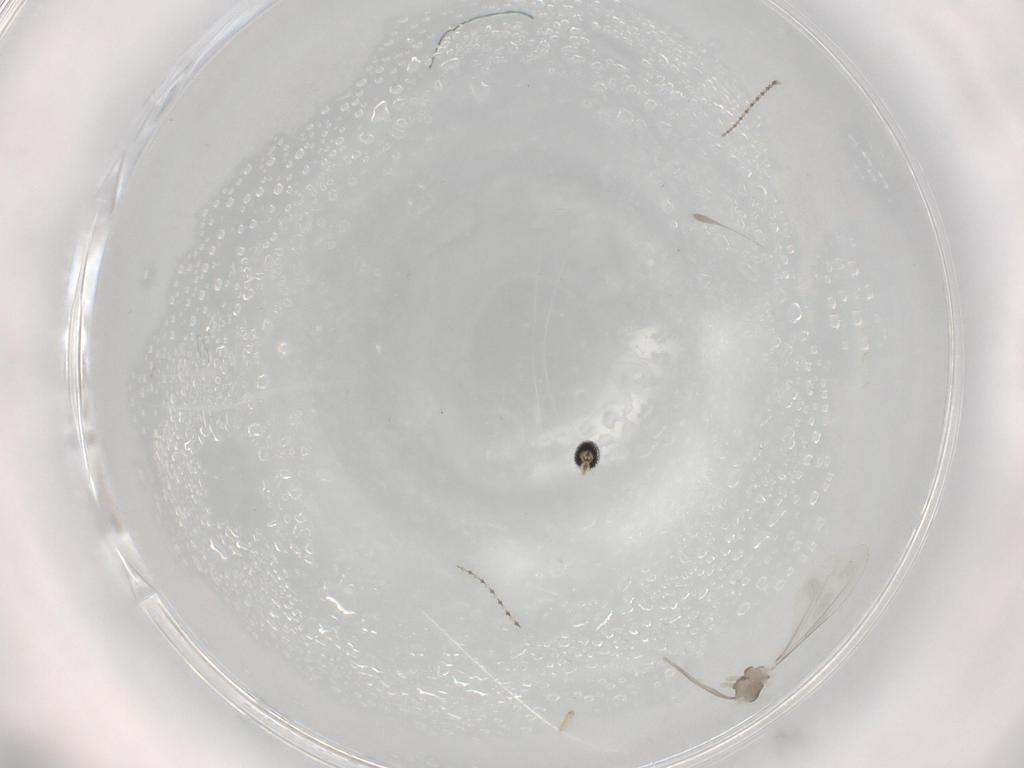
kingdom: Animalia
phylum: Arthropoda
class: Insecta
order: Diptera
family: Cecidomyiidae
